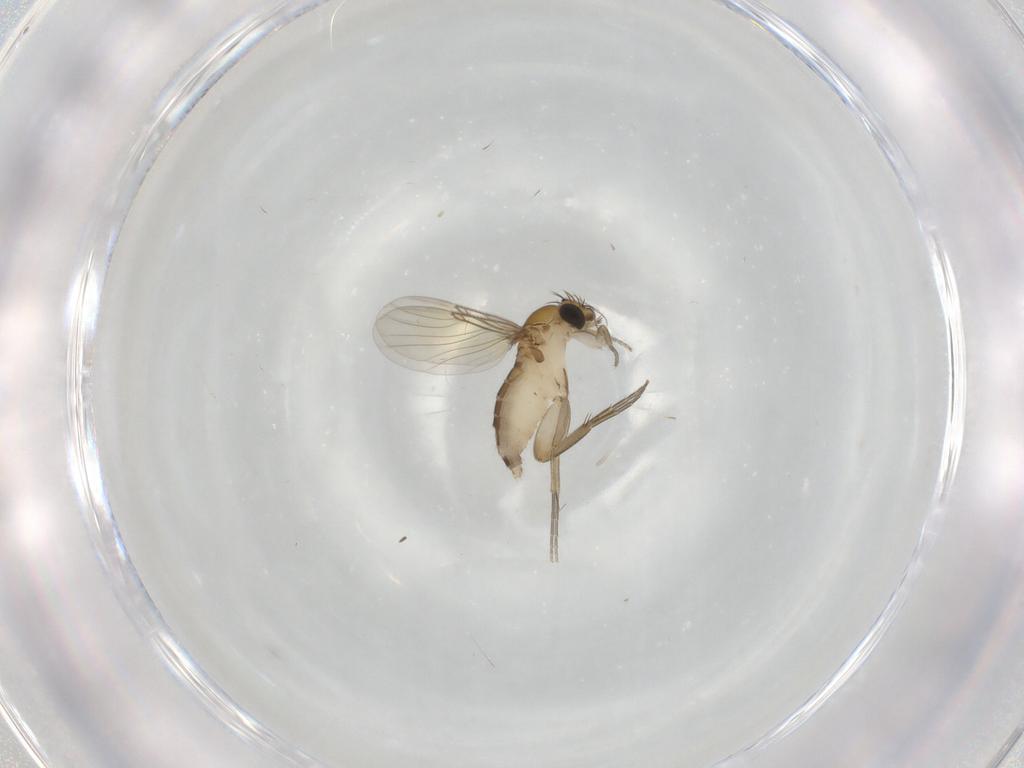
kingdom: Animalia
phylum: Arthropoda
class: Insecta
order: Diptera
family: Phoridae
